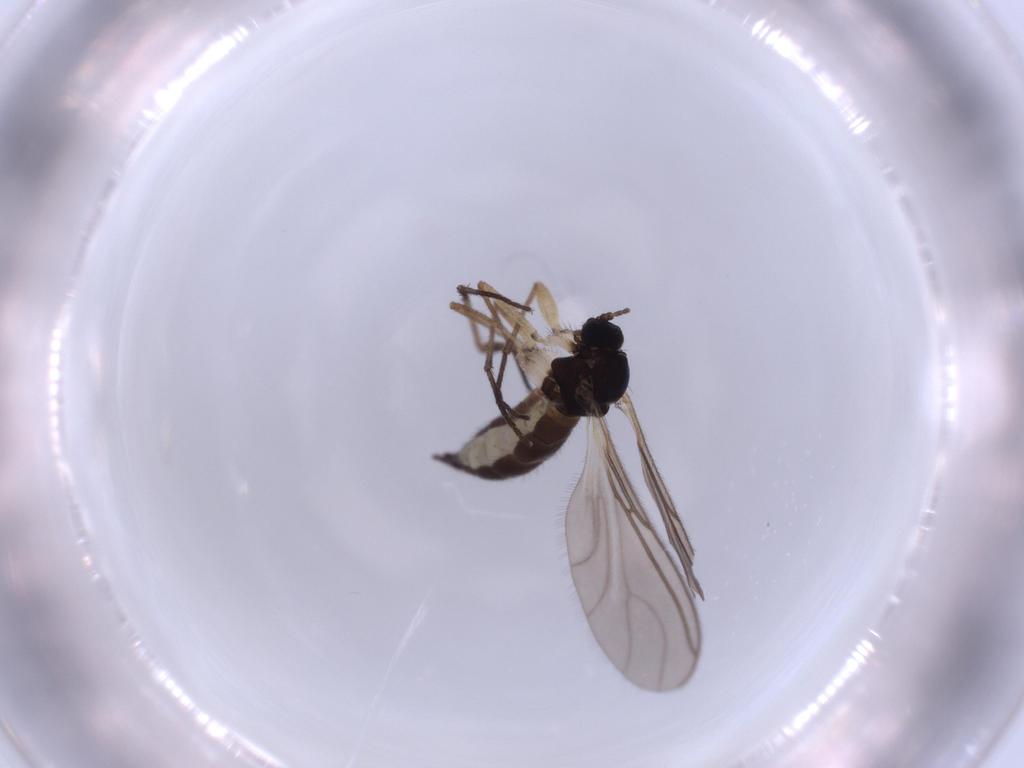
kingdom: Animalia
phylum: Arthropoda
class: Insecta
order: Diptera
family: Sciaridae
